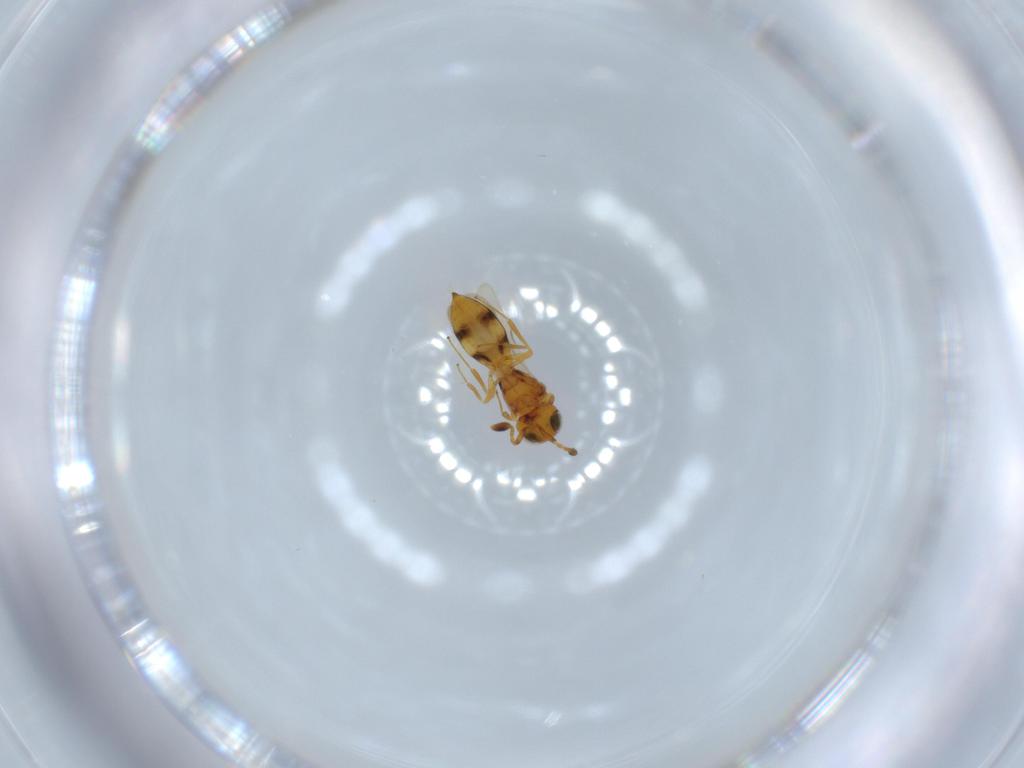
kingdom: Animalia
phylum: Arthropoda
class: Insecta
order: Hymenoptera
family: Scelionidae
